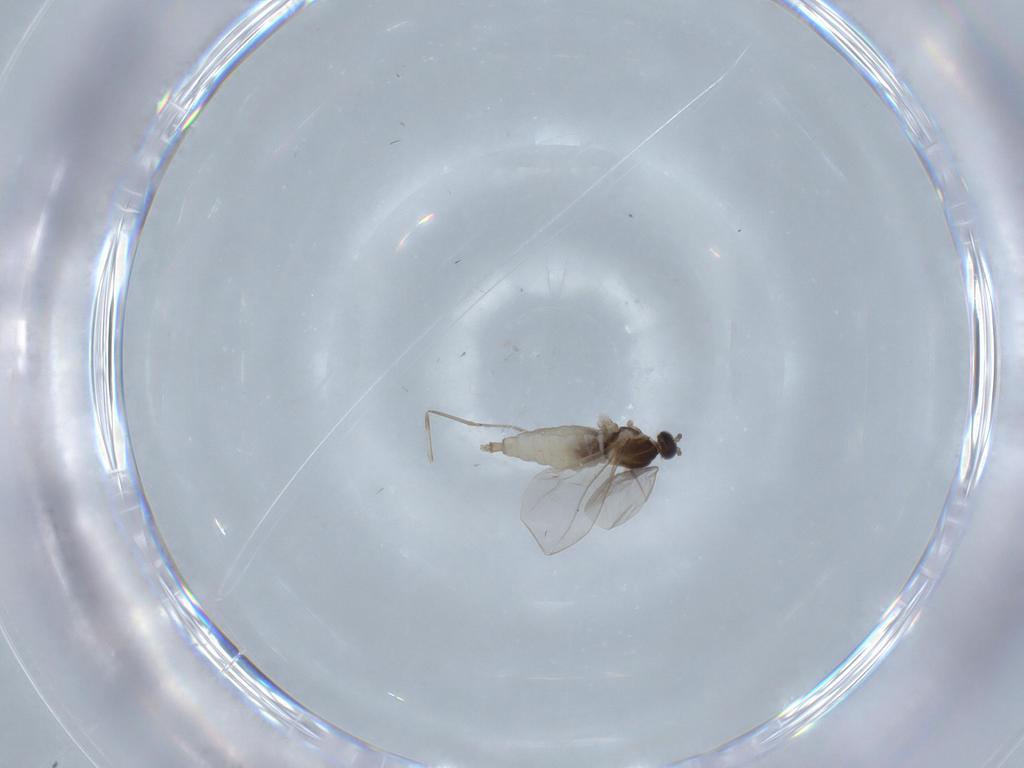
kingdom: Animalia
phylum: Arthropoda
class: Insecta
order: Diptera
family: Cecidomyiidae
